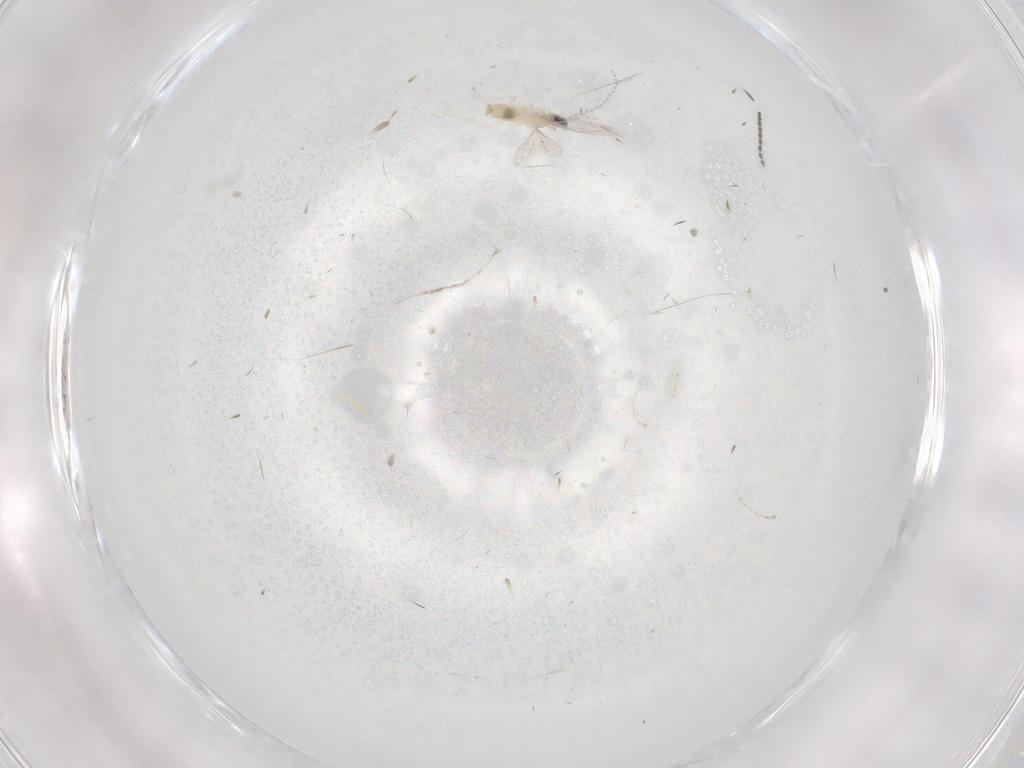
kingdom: Animalia
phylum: Arthropoda
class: Insecta
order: Diptera
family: Cecidomyiidae
